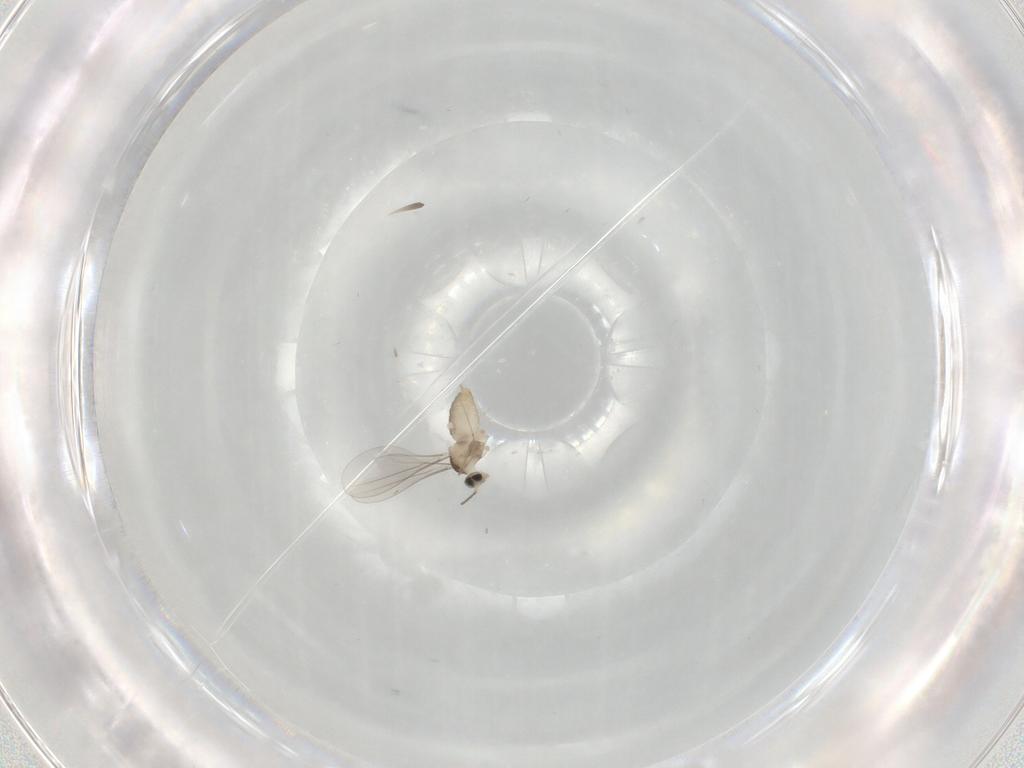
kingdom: Animalia
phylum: Arthropoda
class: Insecta
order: Diptera
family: Cecidomyiidae
